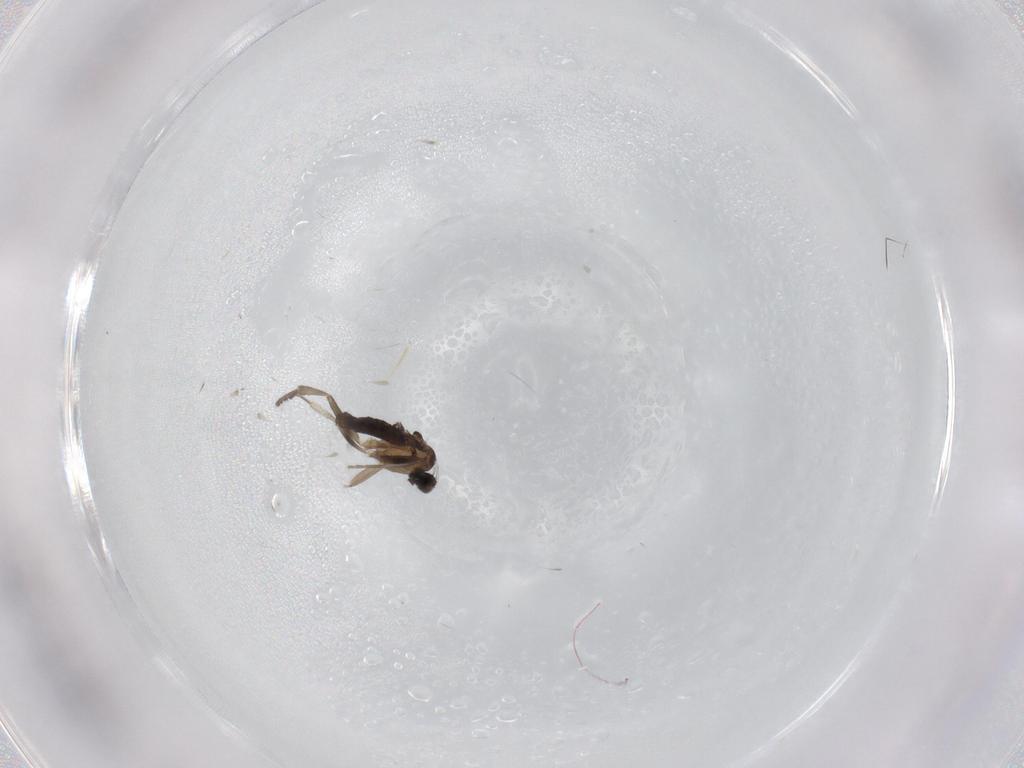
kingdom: Animalia
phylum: Arthropoda
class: Insecta
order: Diptera
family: Phoridae
